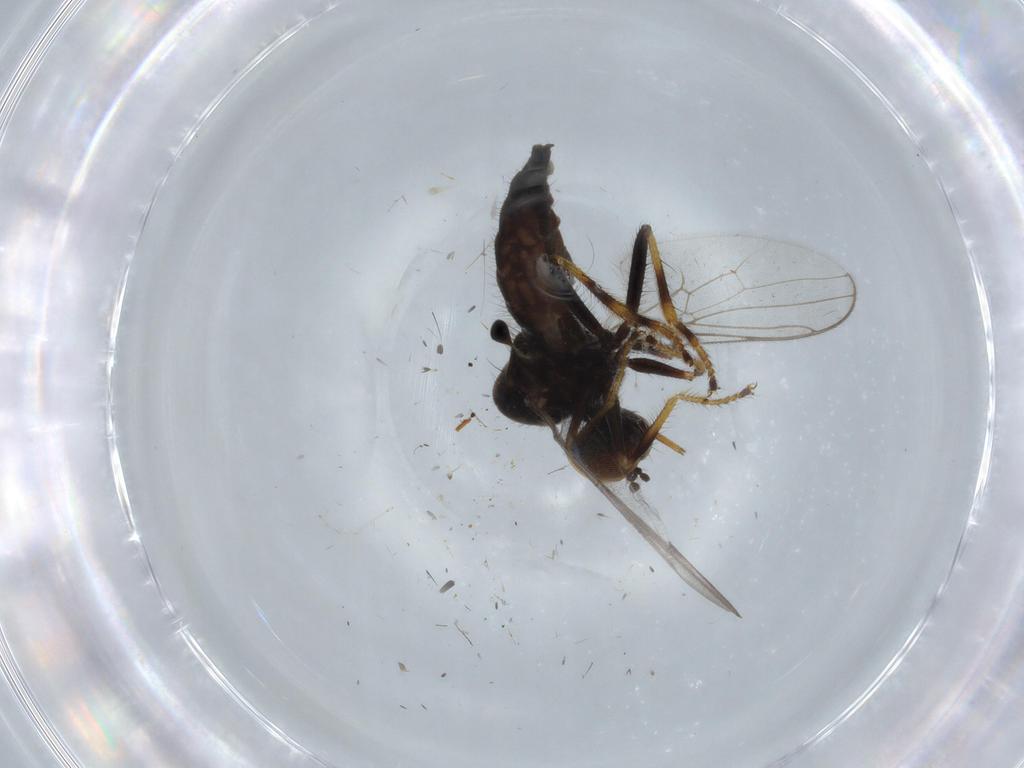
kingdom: Animalia
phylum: Arthropoda
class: Insecta
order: Diptera
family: Hybotidae
